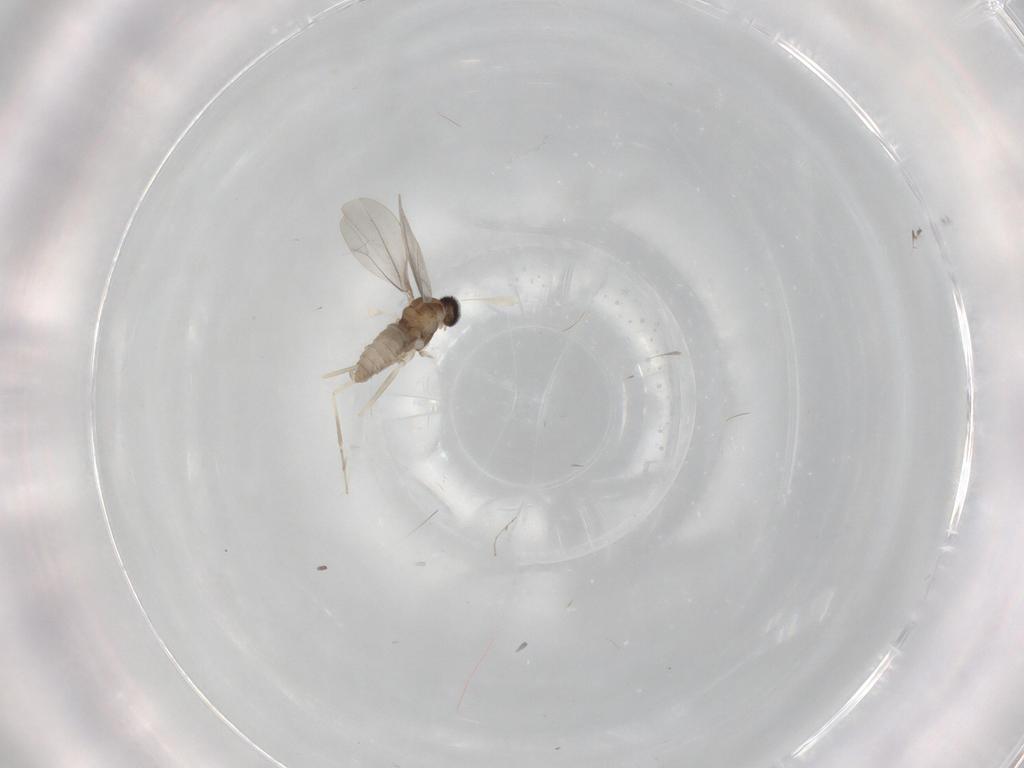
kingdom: Animalia
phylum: Arthropoda
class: Insecta
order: Diptera
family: Cecidomyiidae
